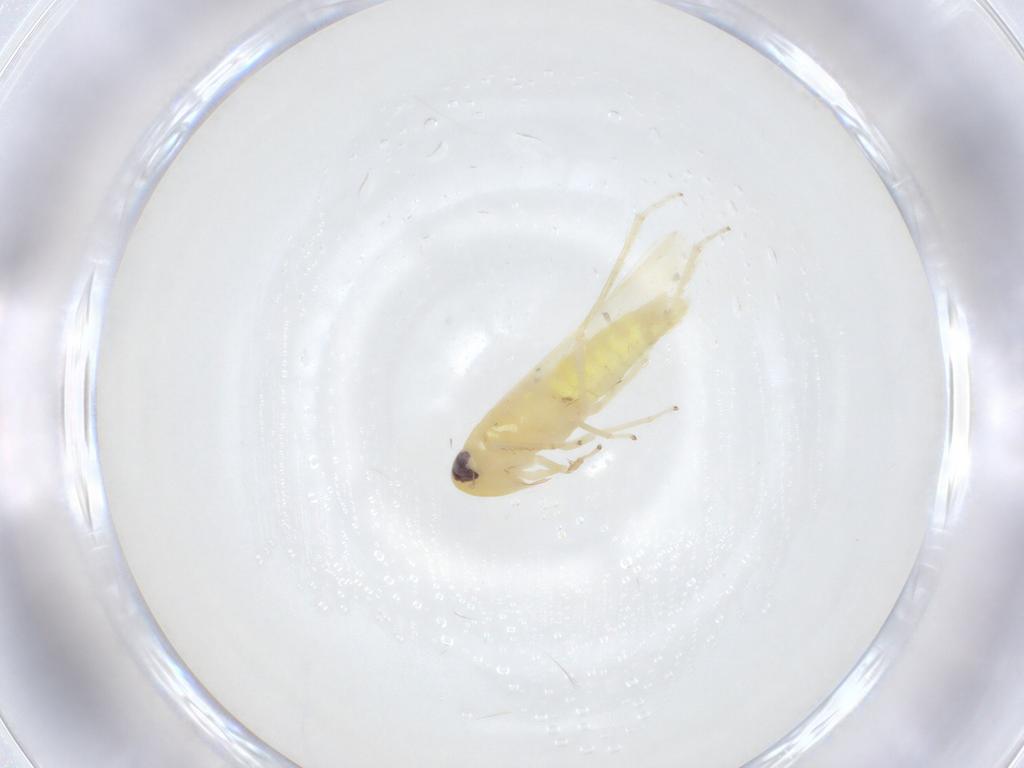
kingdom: Animalia
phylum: Arthropoda
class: Insecta
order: Hemiptera
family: Cicadellidae
